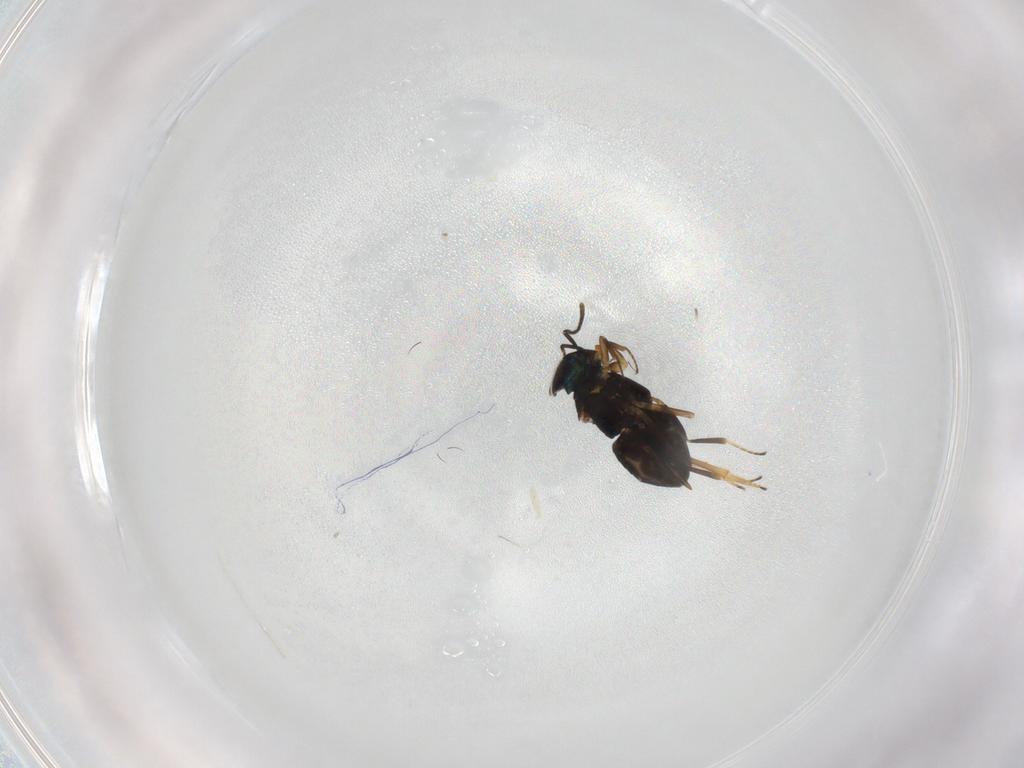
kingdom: Animalia
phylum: Arthropoda
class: Insecta
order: Hymenoptera
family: Encyrtidae
